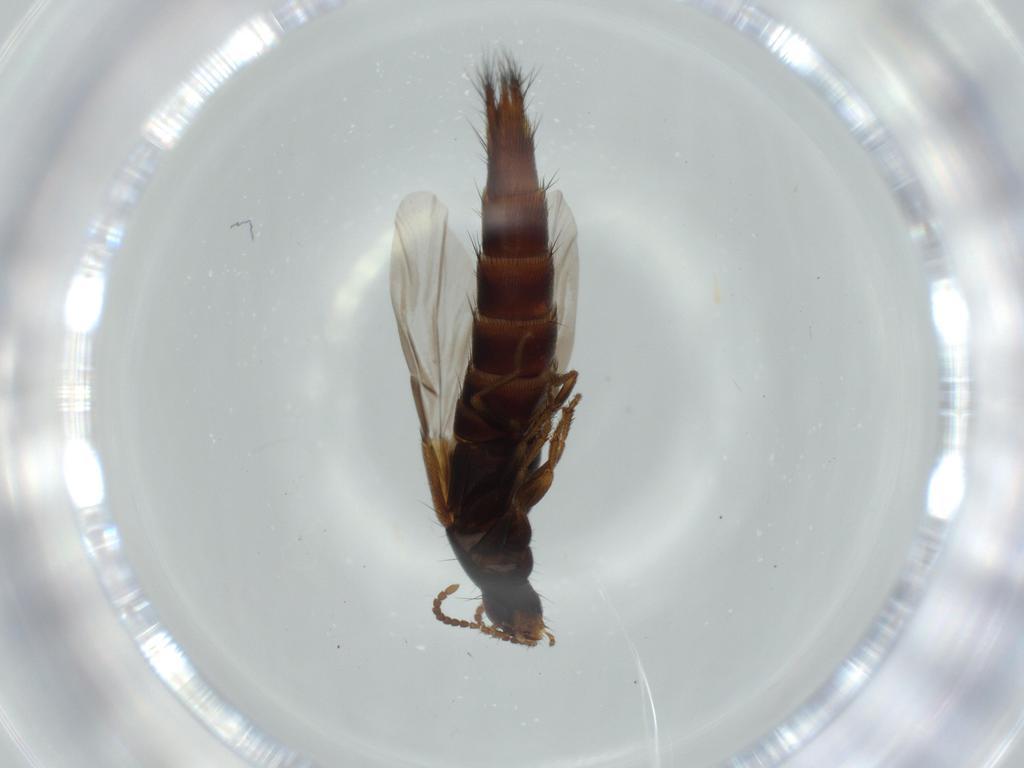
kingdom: Animalia
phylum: Arthropoda
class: Insecta
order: Coleoptera
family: Staphylinidae
